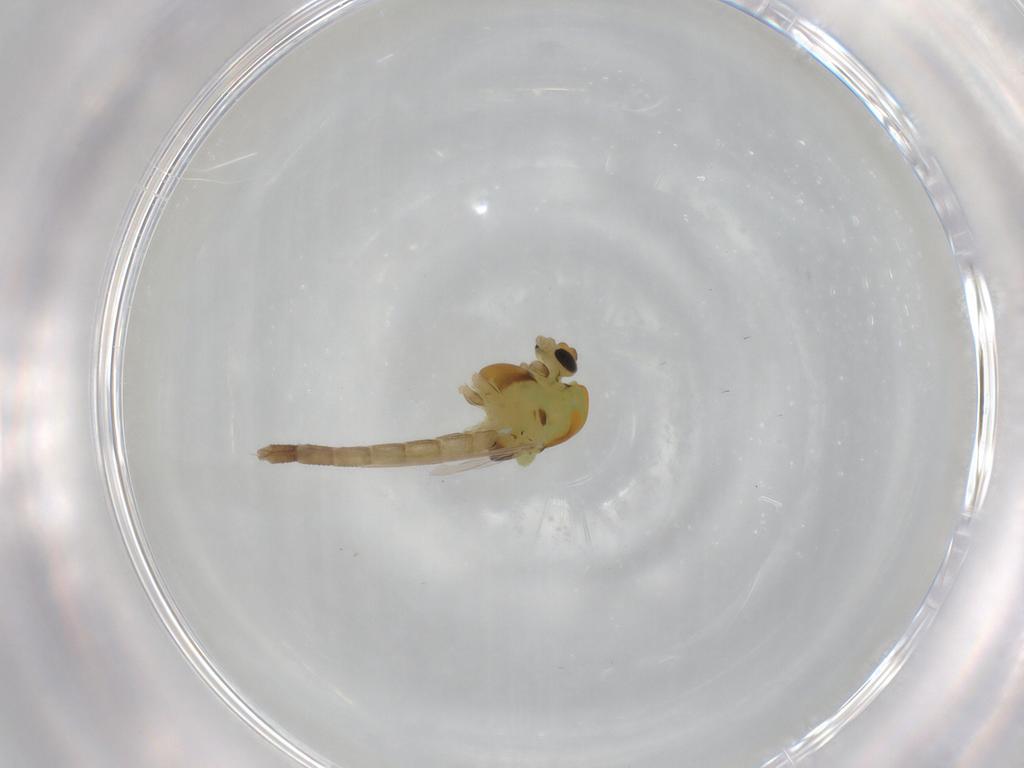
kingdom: Animalia
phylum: Arthropoda
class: Insecta
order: Diptera
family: Chironomidae
